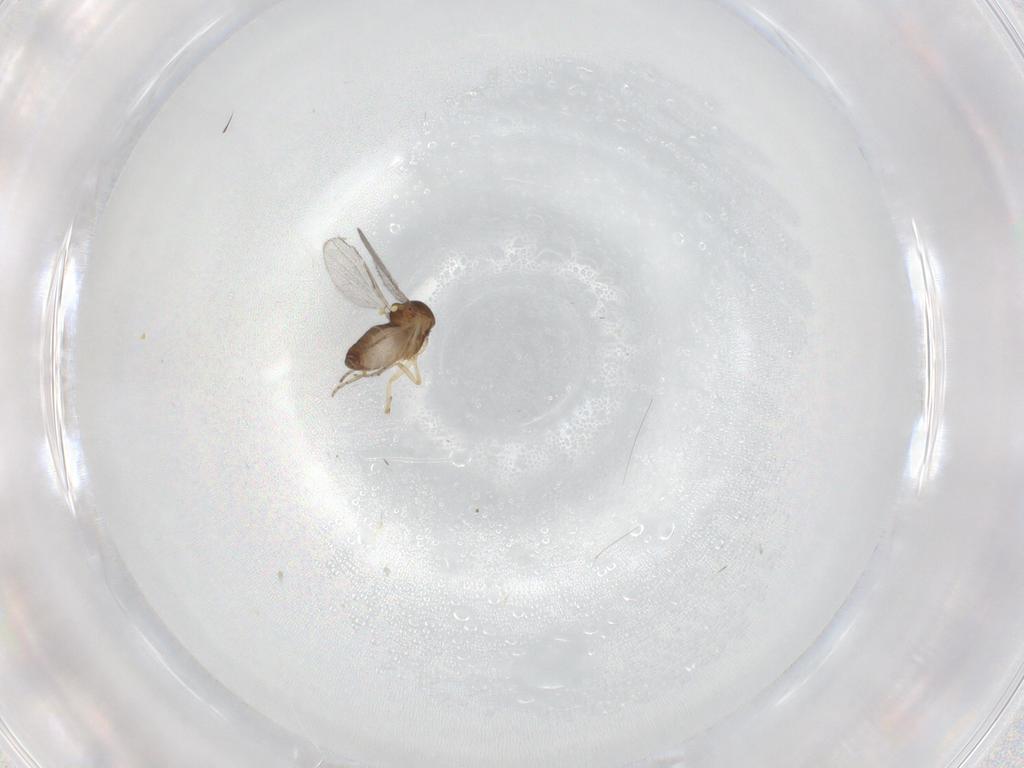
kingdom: Animalia
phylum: Arthropoda
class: Insecta
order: Diptera
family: Ceratopogonidae
